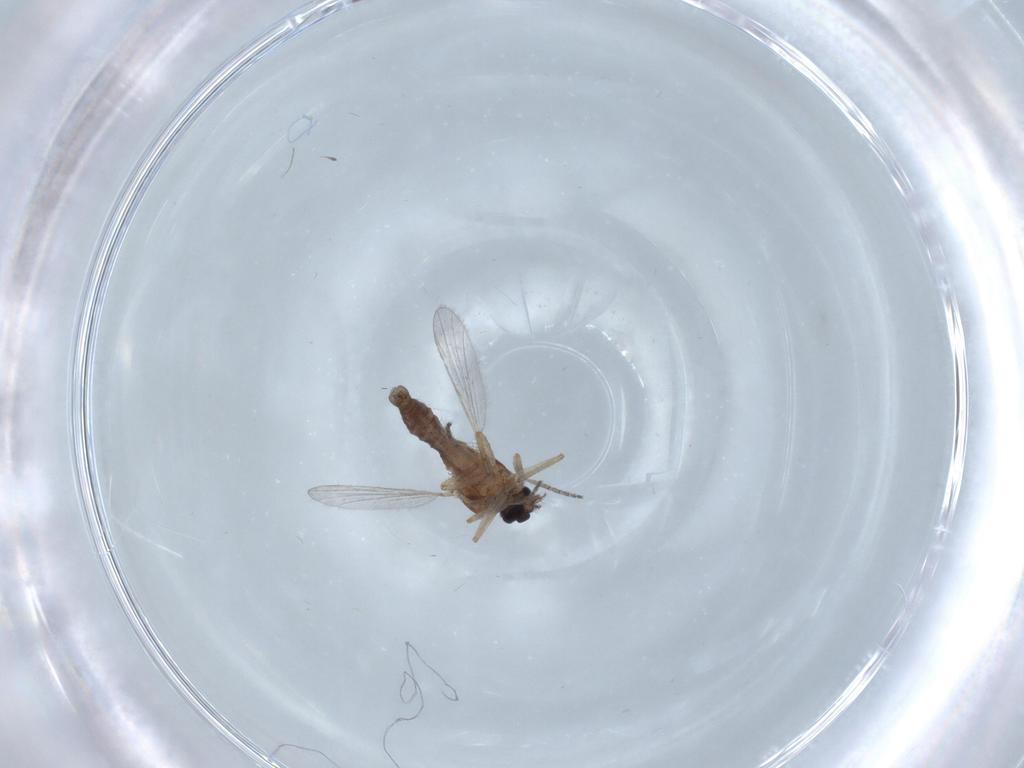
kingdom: Animalia
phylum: Arthropoda
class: Insecta
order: Diptera
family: Ceratopogonidae
